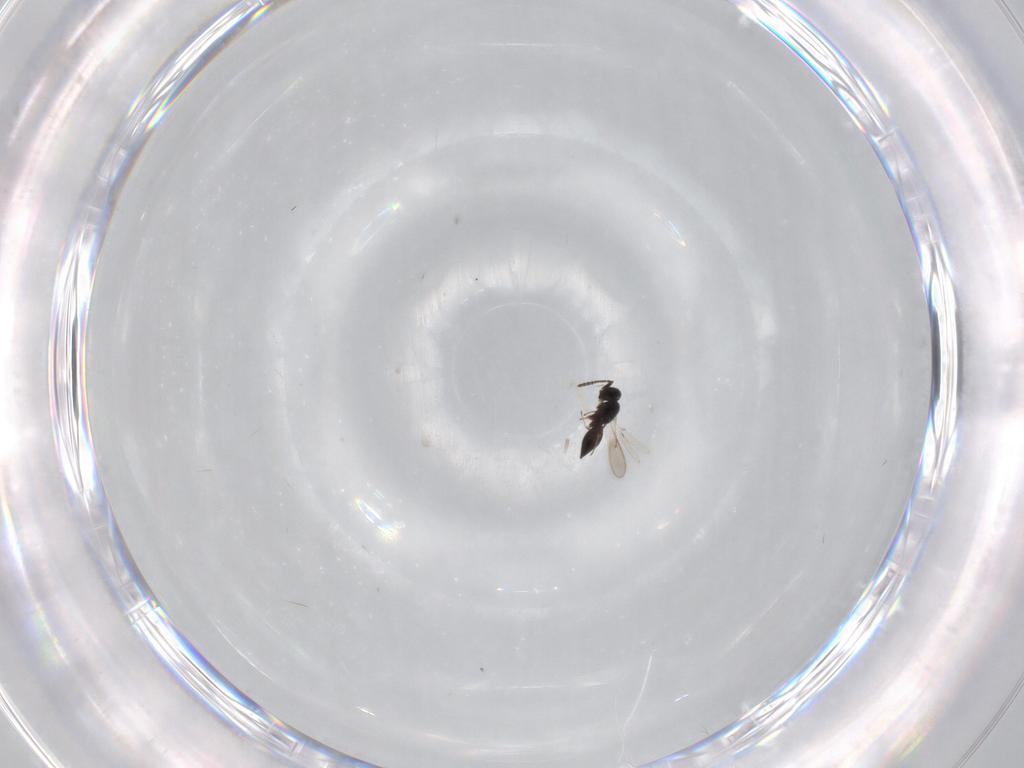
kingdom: Animalia
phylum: Arthropoda
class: Insecta
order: Hymenoptera
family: Scelionidae
